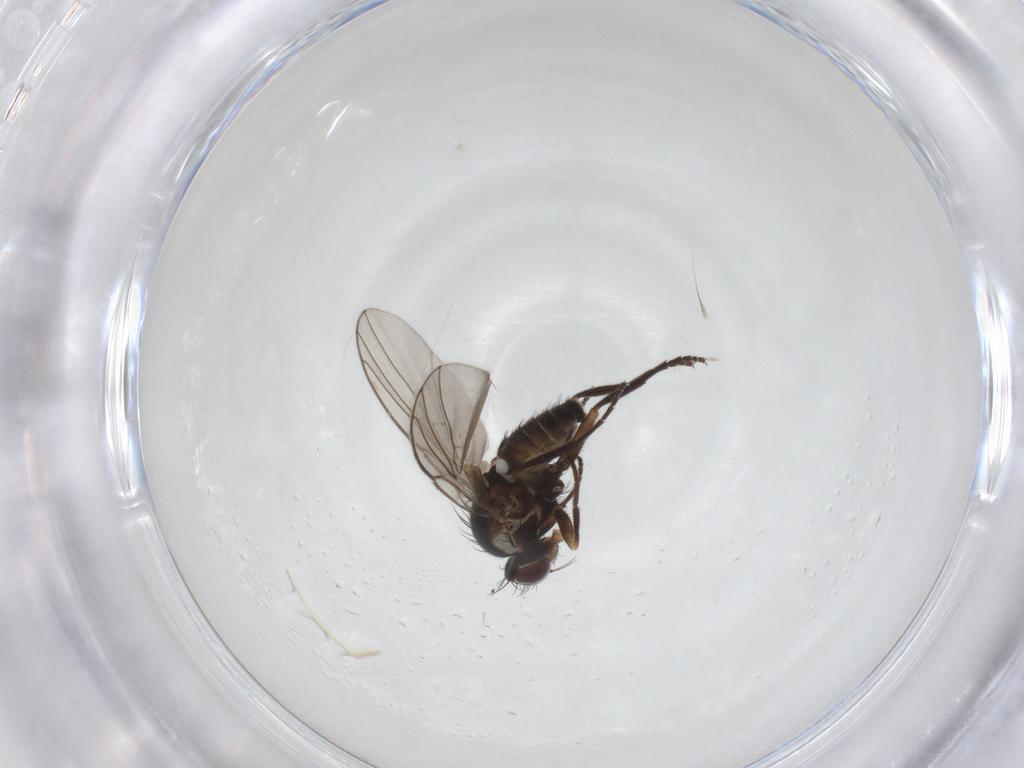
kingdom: Animalia
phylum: Arthropoda
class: Insecta
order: Diptera
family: Agromyzidae
